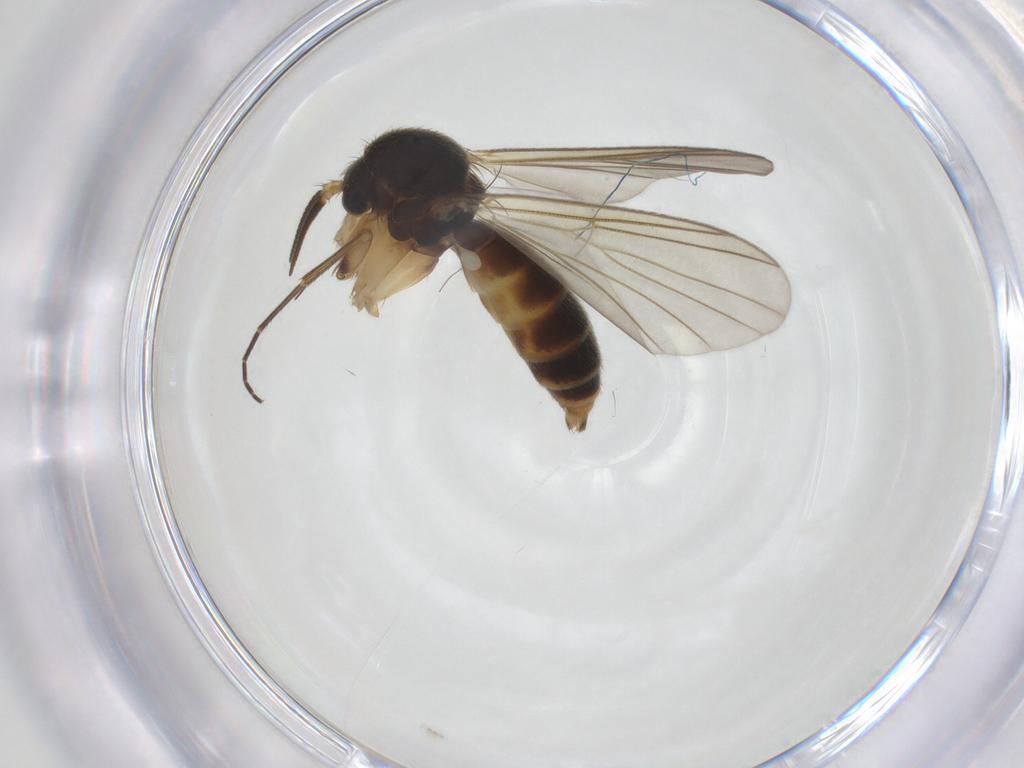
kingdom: Animalia
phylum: Arthropoda
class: Insecta
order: Diptera
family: Mycetophilidae
